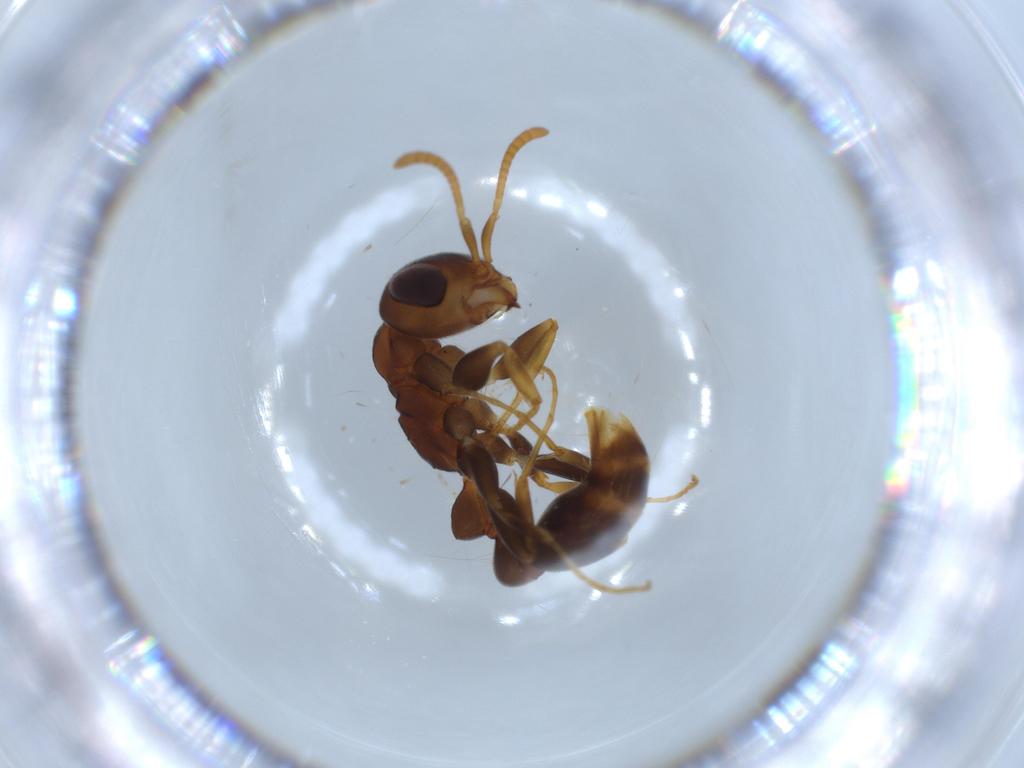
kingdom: Animalia
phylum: Arthropoda
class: Insecta
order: Hymenoptera
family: Formicidae
